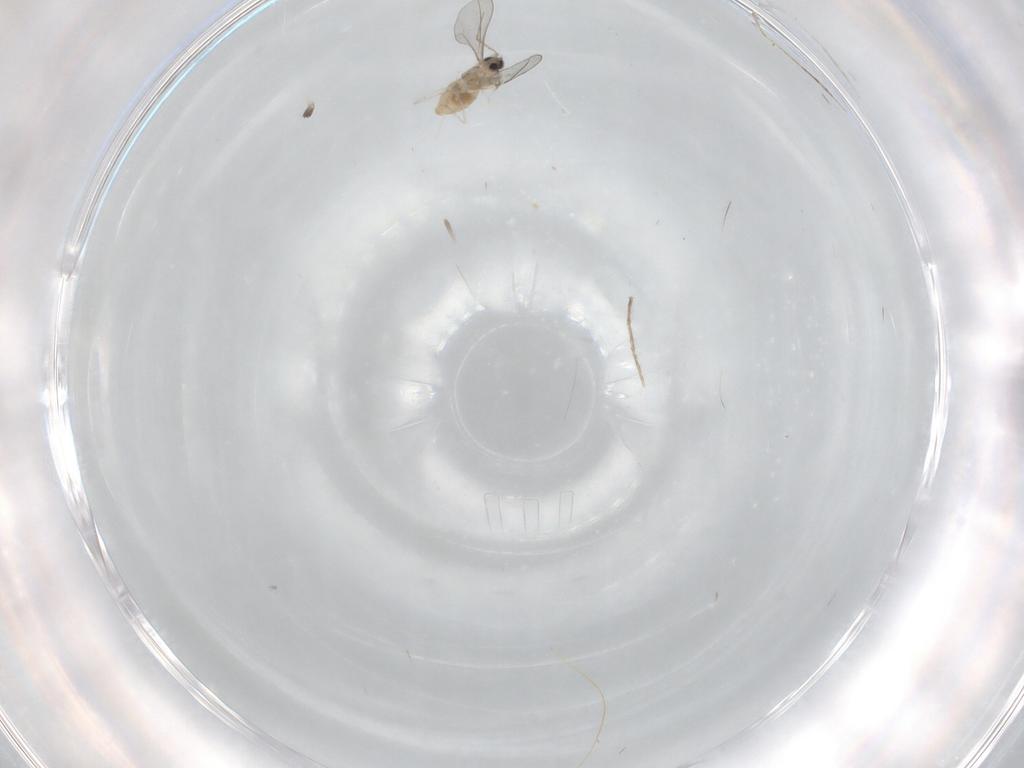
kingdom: Animalia
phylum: Arthropoda
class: Insecta
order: Diptera
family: Cecidomyiidae
